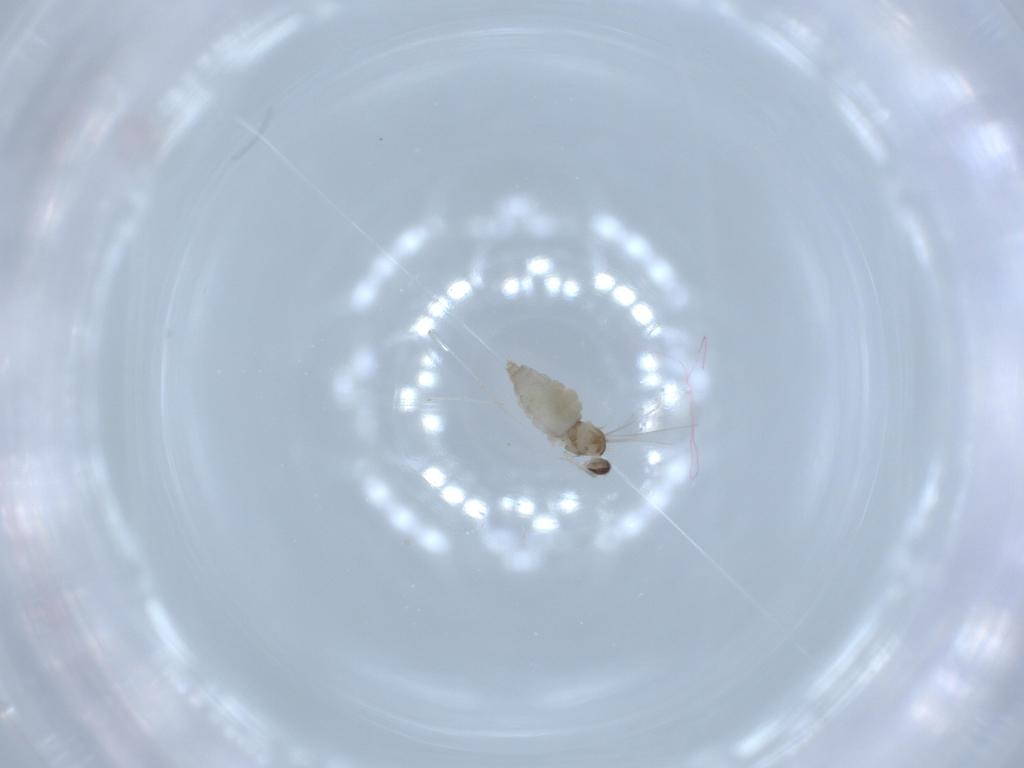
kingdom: Animalia
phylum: Arthropoda
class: Insecta
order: Diptera
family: Cecidomyiidae
